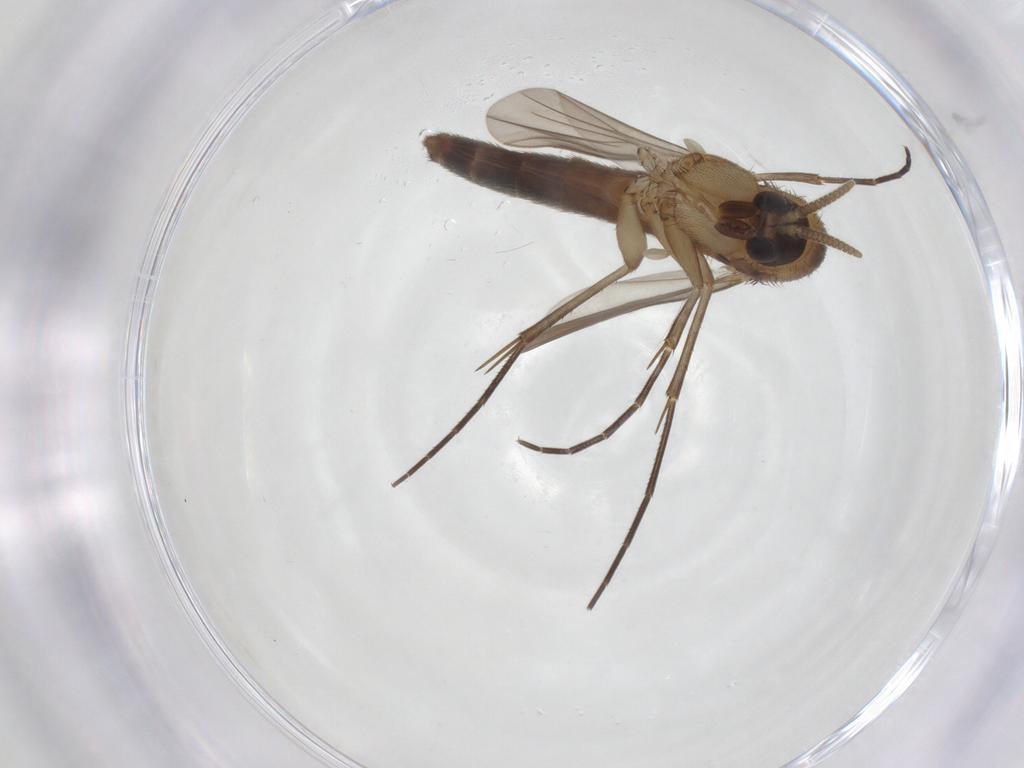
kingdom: Animalia
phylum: Arthropoda
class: Insecta
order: Diptera
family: Mycetophilidae
